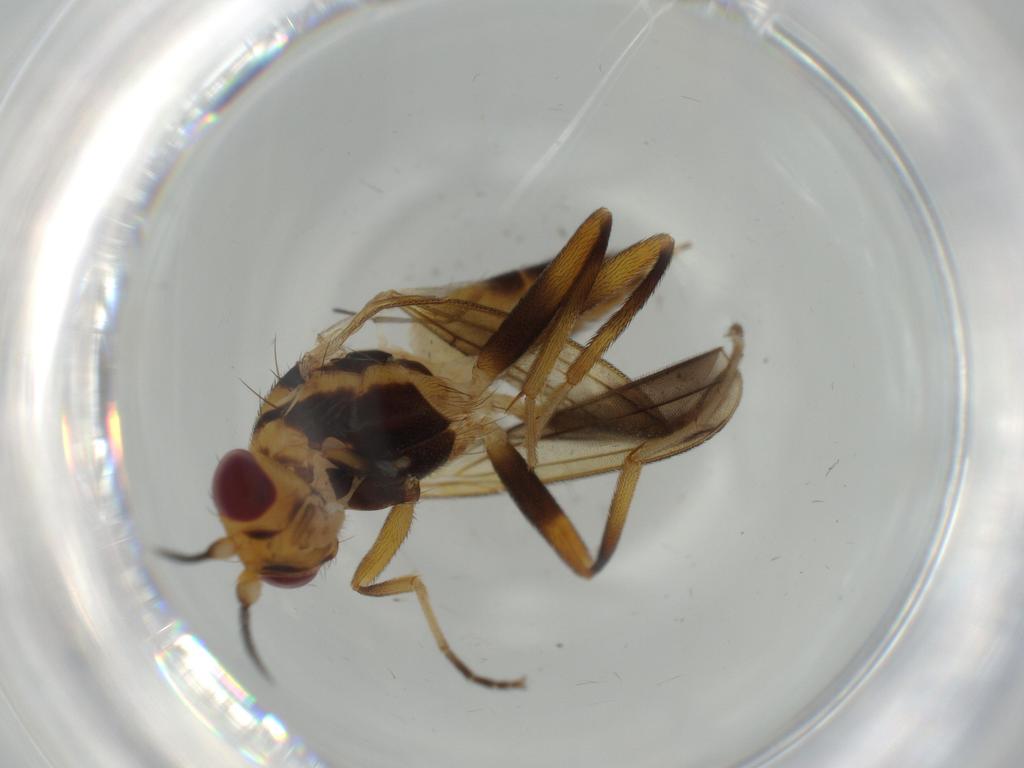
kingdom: Animalia
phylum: Arthropoda
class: Insecta
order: Diptera
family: Clusiidae
